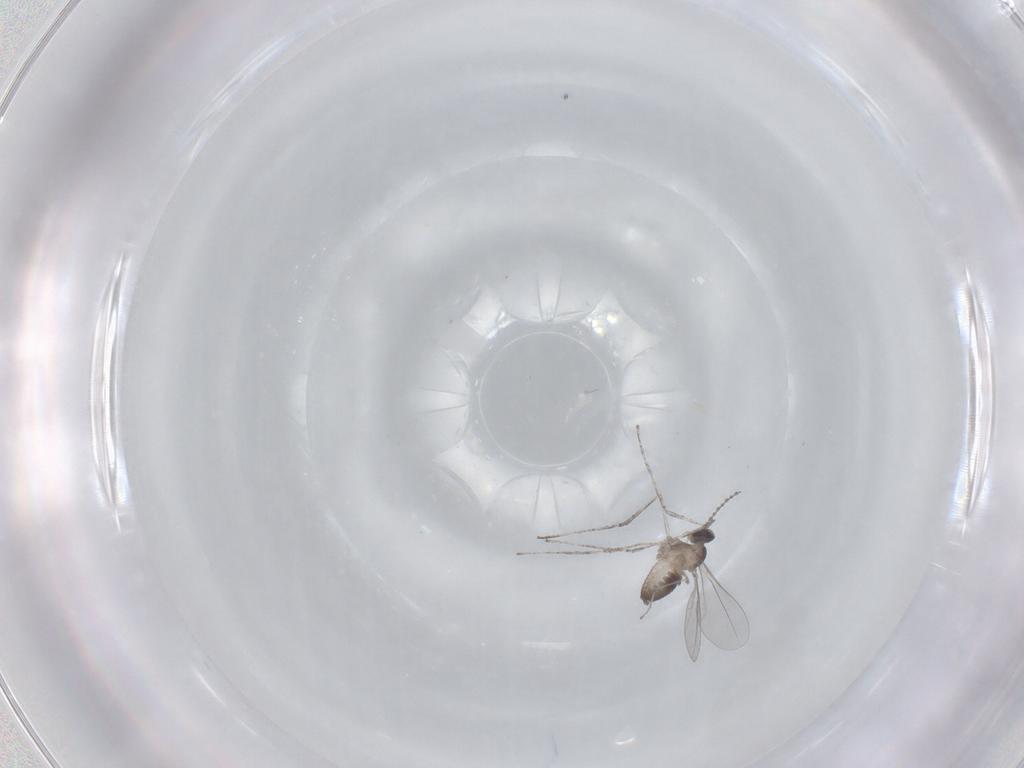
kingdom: Animalia
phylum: Arthropoda
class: Insecta
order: Diptera
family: Cecidomyiidae
